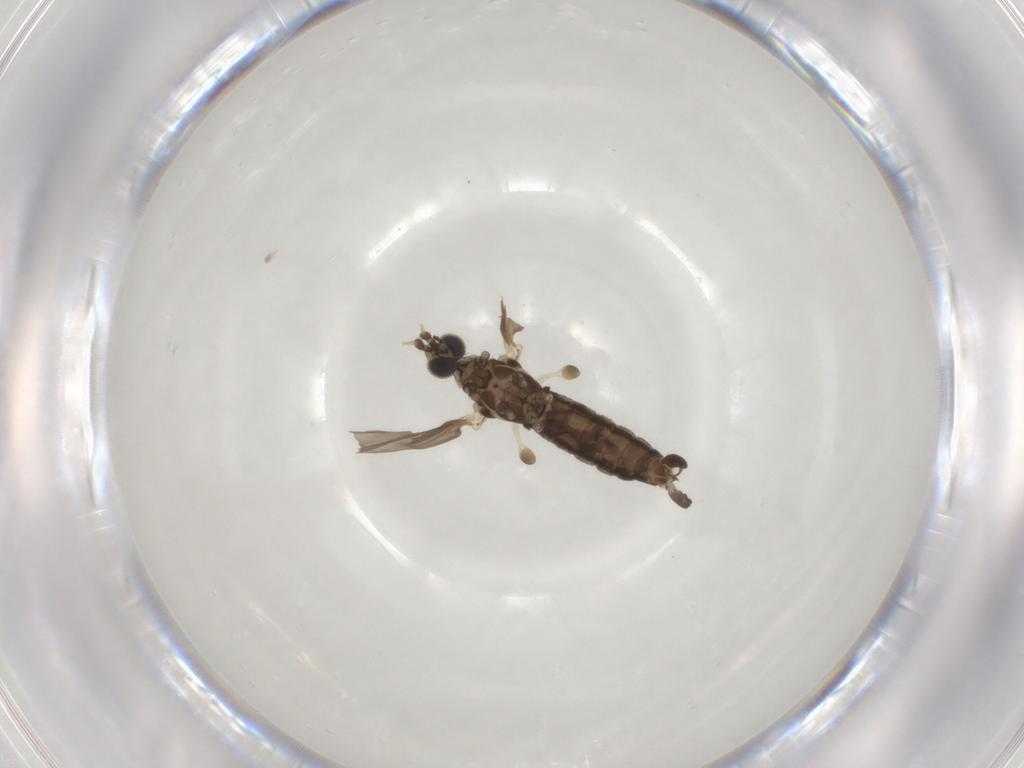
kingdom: Animalia
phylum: Arthropoda
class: Insecta
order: Diptera
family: Limoniidae
